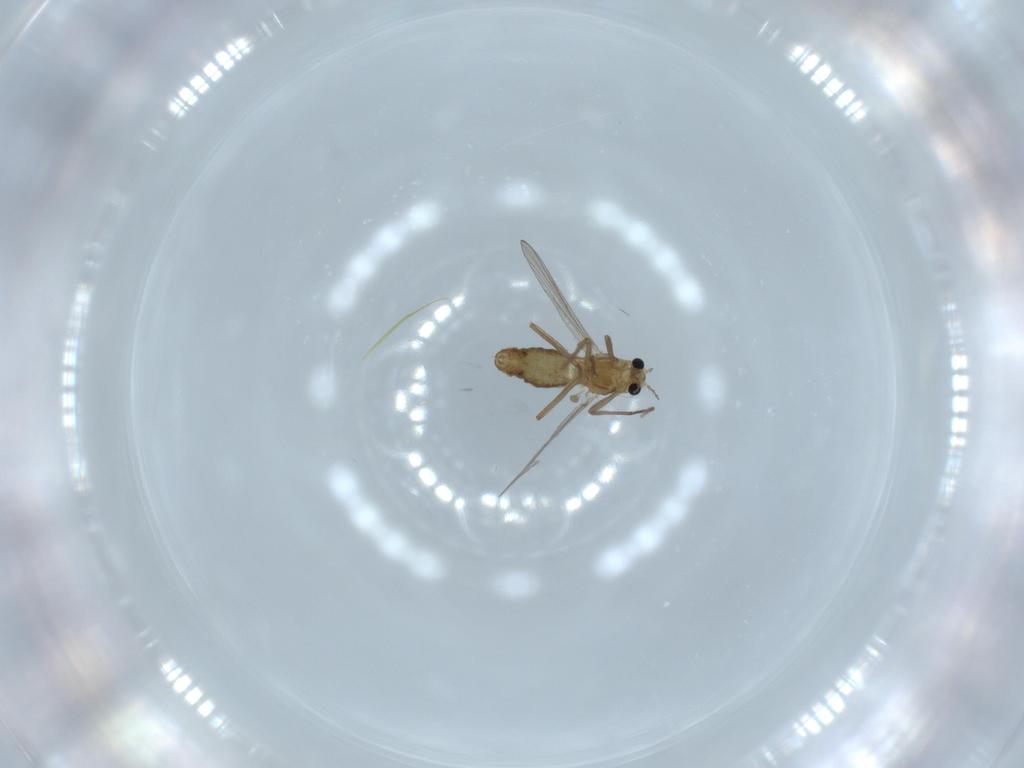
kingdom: Animalia
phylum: Arthropoda
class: Insecta
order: Diptera
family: Chironomidae
